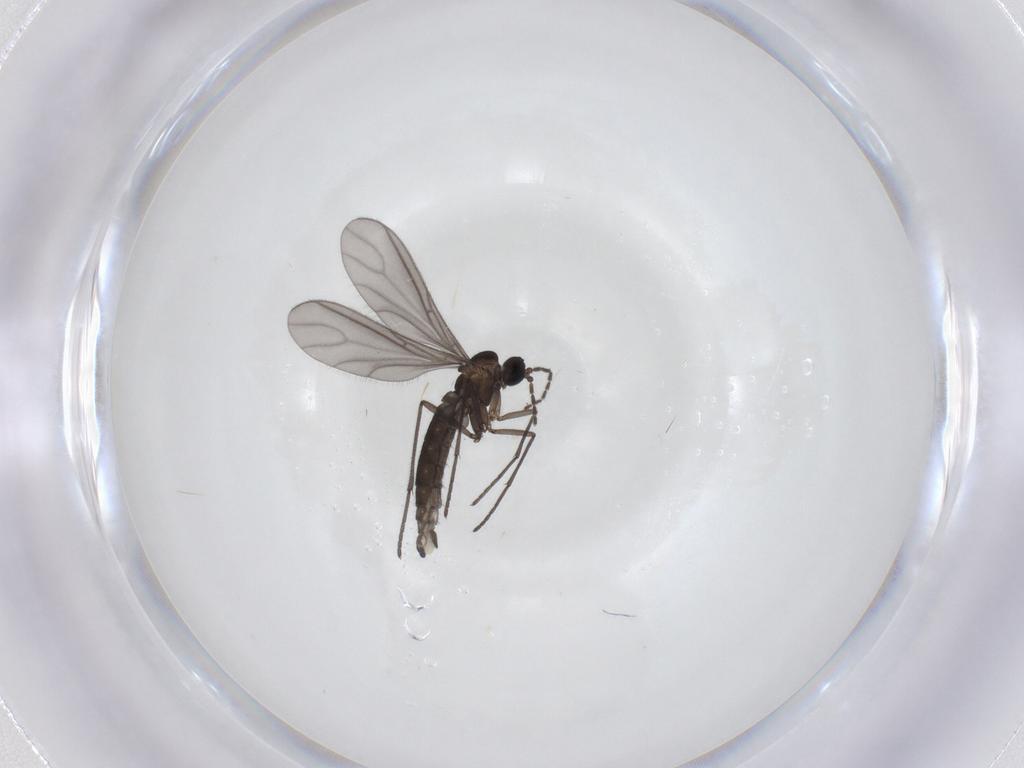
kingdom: Animalia
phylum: Arthropoda
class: Insecta
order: Diptera
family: Sciaridae
